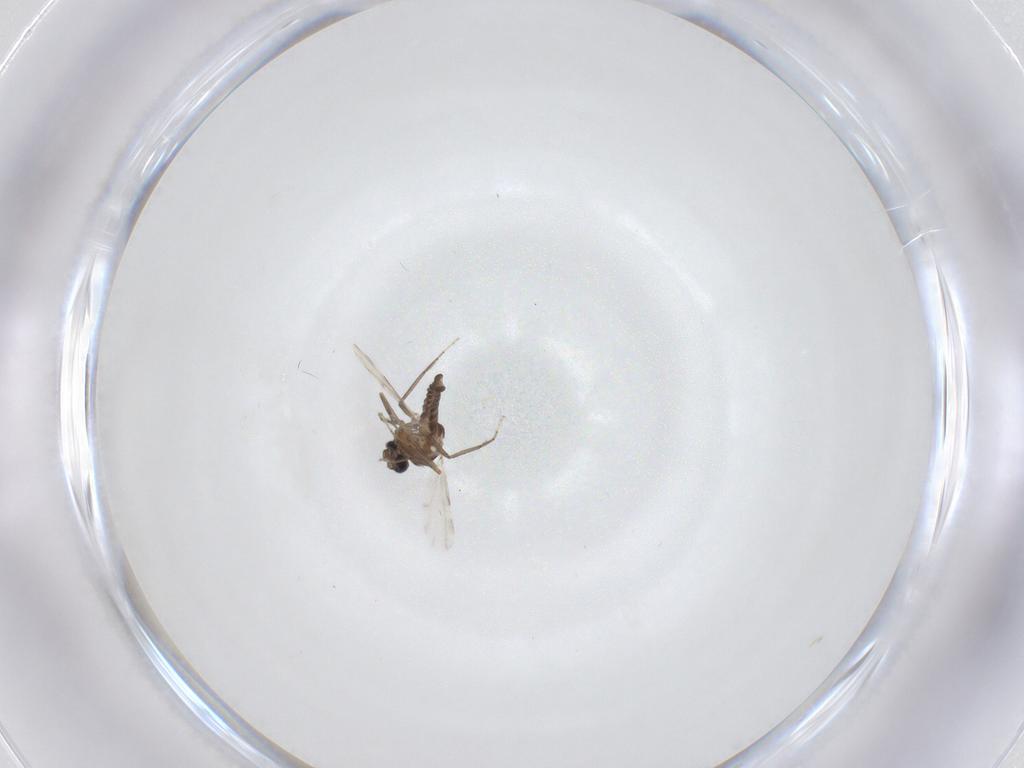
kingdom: Animalia
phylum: Arthropoda
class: Insecta
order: Diptera
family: Ceratopogonidae
